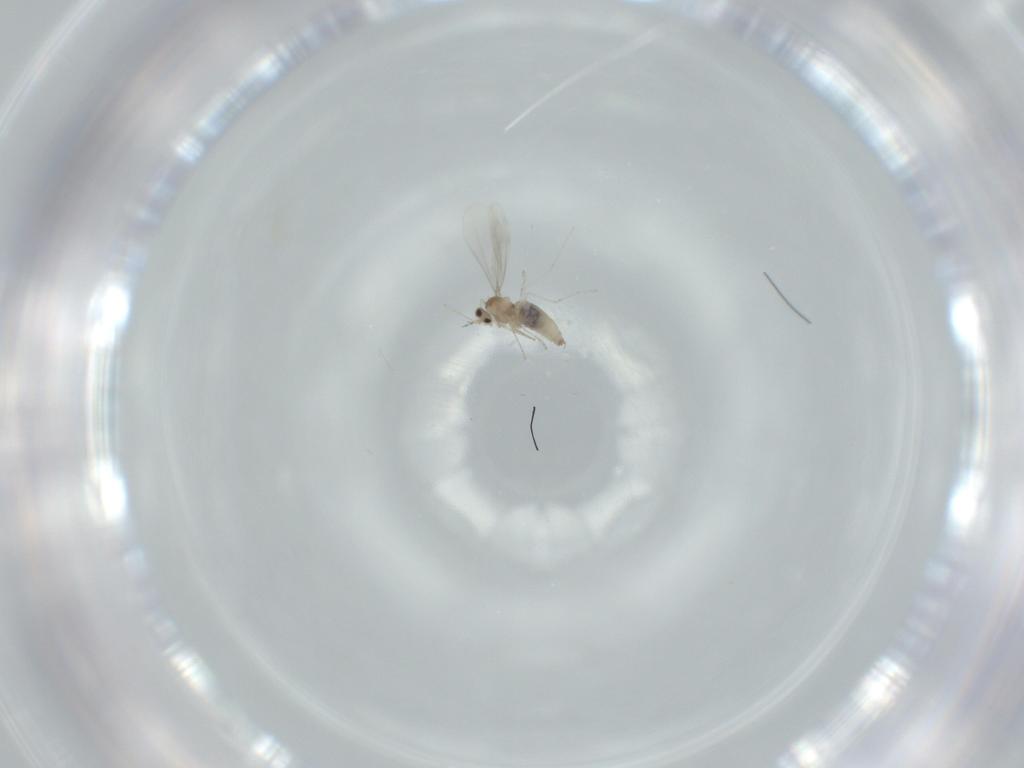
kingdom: Animalia
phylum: Arthropoda
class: Insecta
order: Diptera
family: Cecidomyiidae
